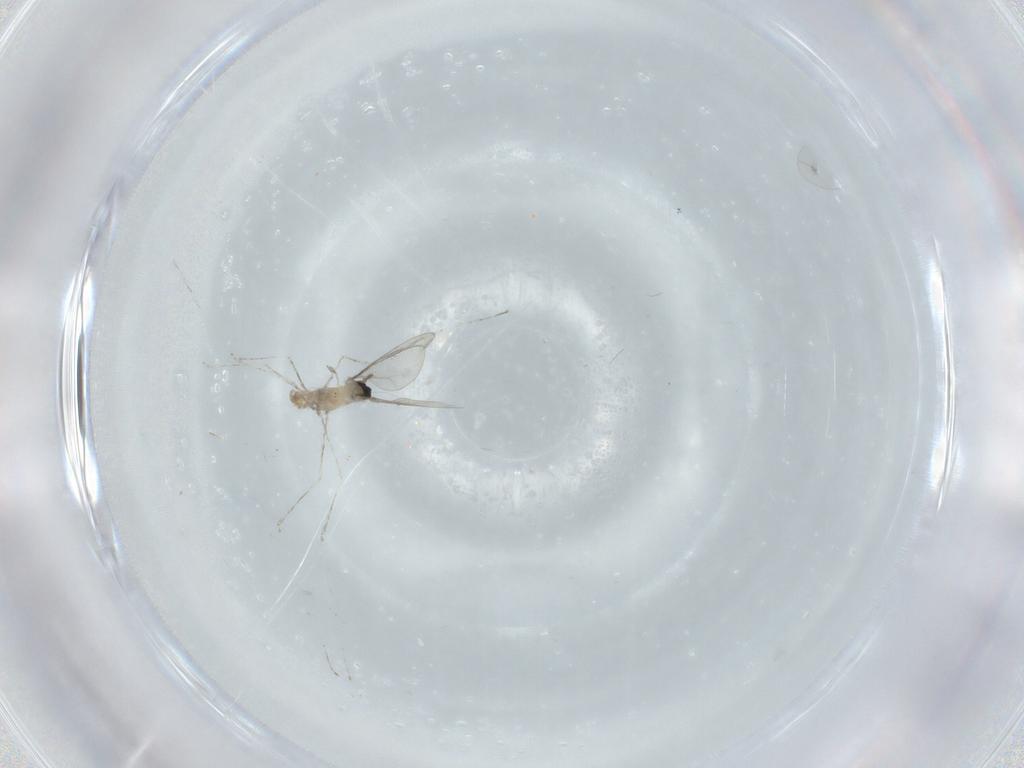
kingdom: Animalia
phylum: Arthropoda
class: Insecta
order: Diptera
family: Cecidomyiidae
